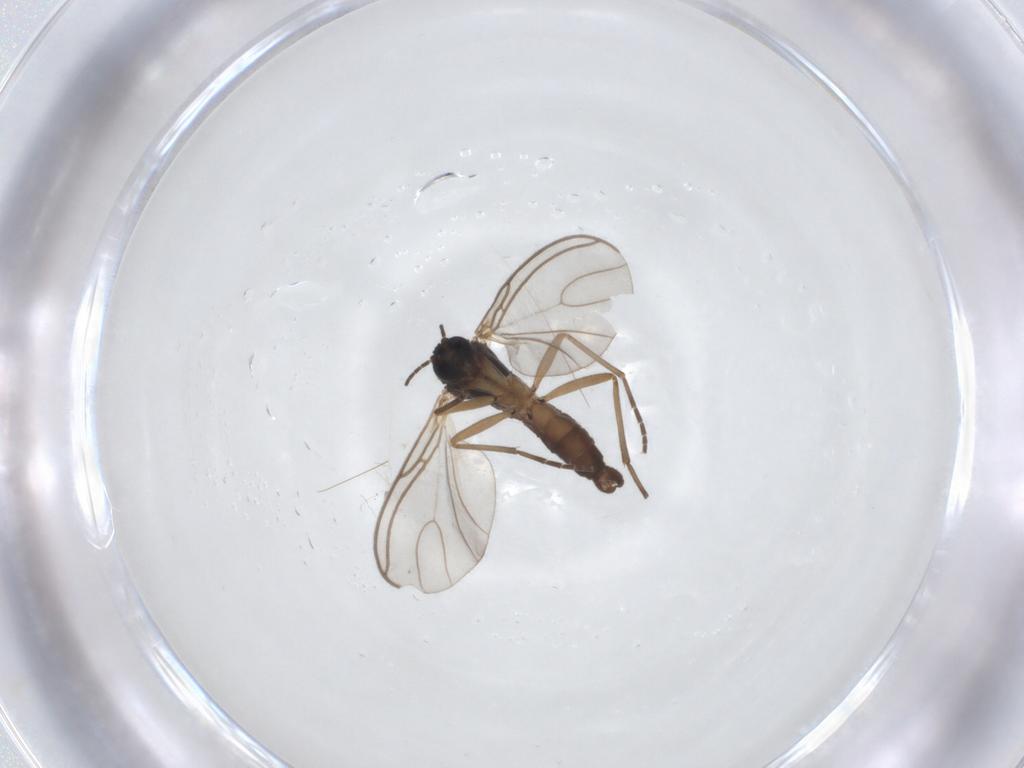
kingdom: Animalia
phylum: Arthropoda
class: Insecta
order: Diptera
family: Sciaridae
